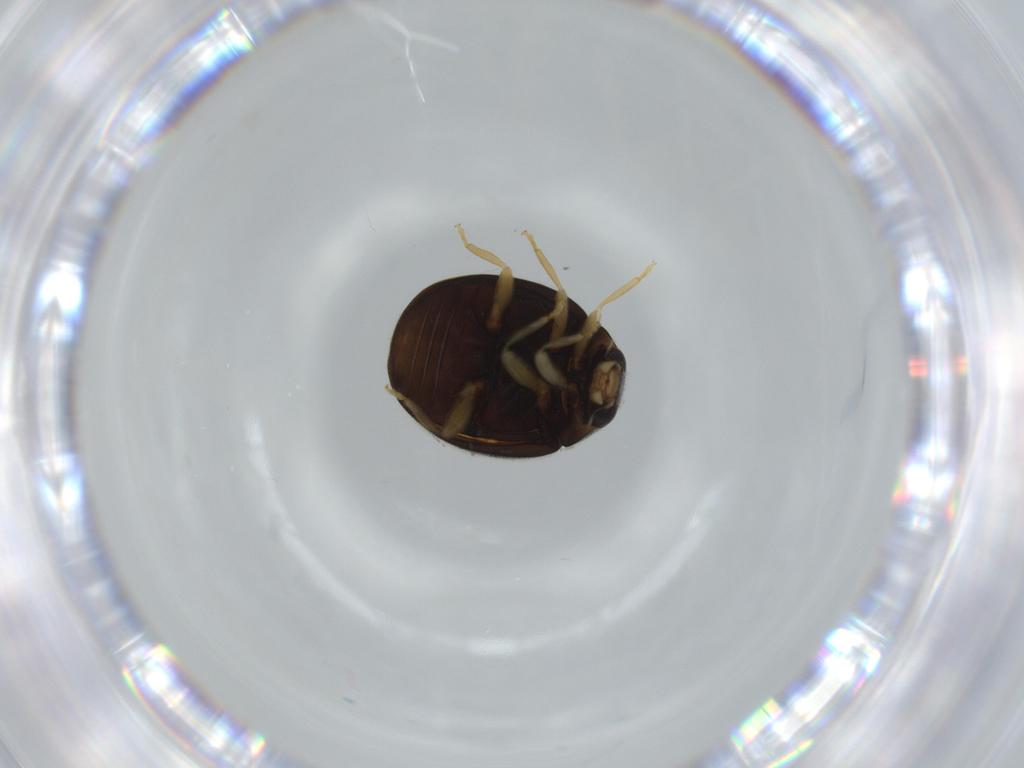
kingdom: Animalia
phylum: Arthropoda
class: Insecta
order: Coleoptera
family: Coccinellidae
